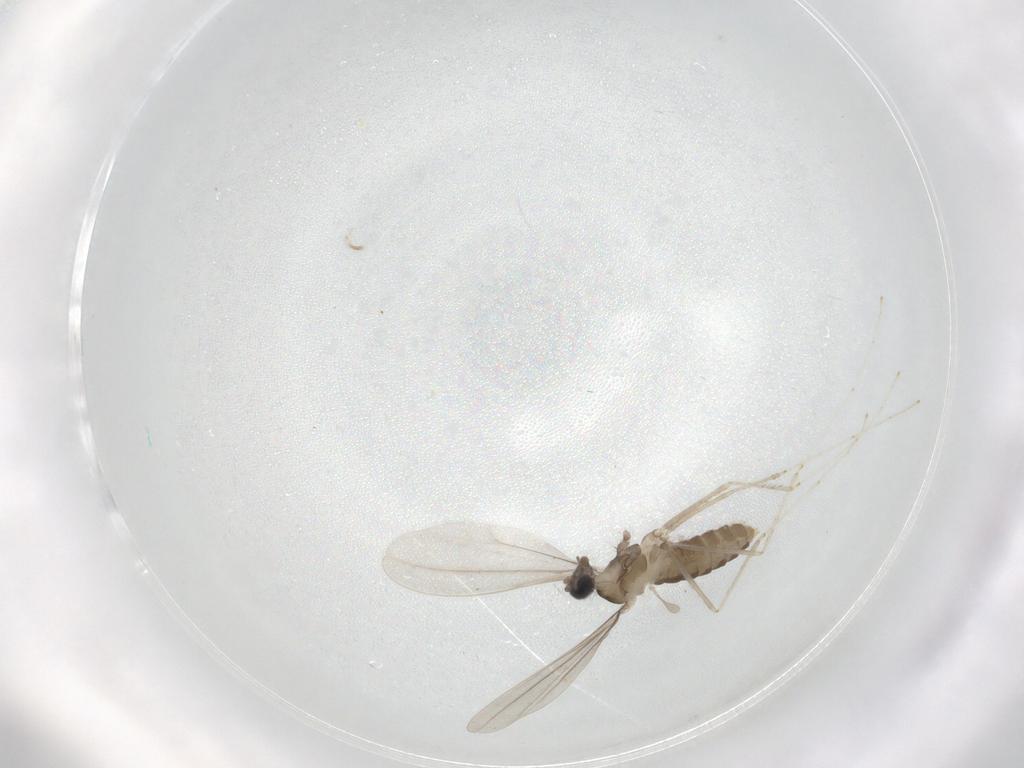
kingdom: Animalia
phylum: Arthropoda
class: Insecta
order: Diptera
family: Cecidomyiidae
